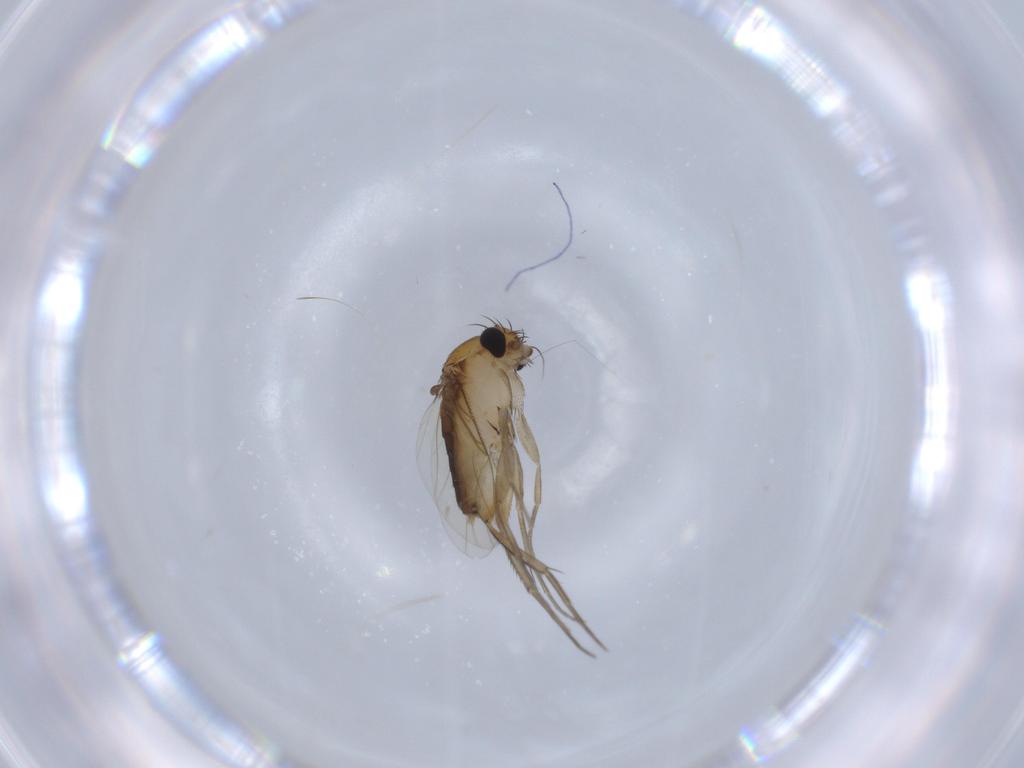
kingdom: Animalia
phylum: Arthropoda
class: Insecta
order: Diptera
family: Phoridae
